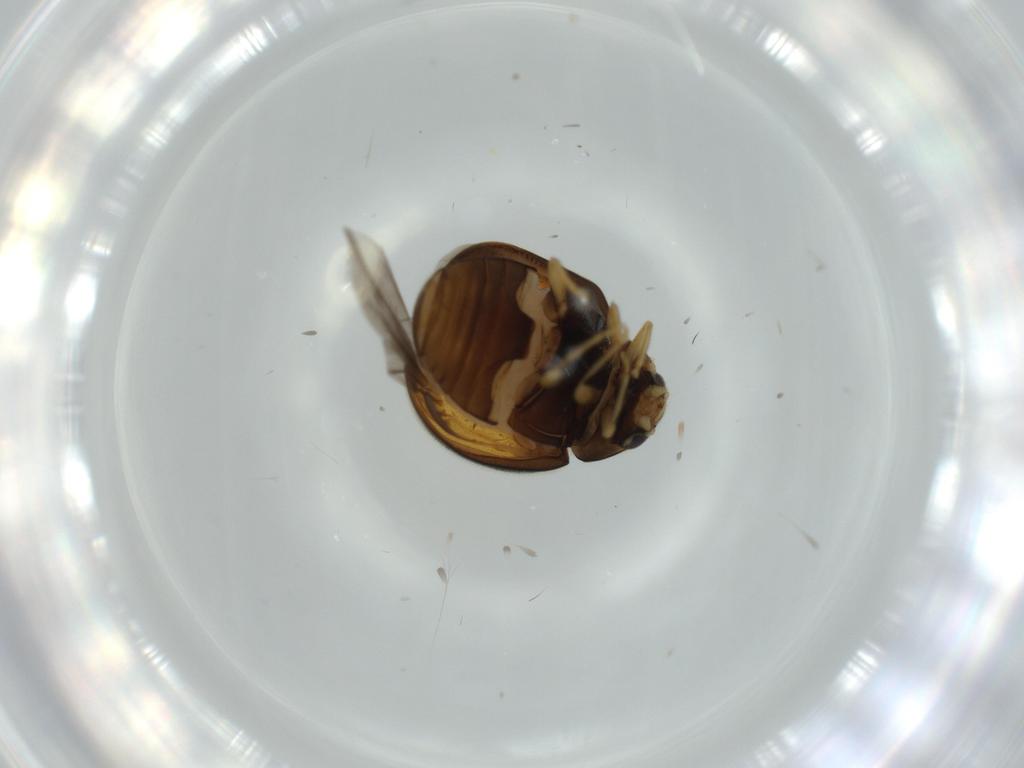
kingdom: Animalia
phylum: Arthropoda
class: Insecta
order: Coleoptera
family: Coccinellidae
